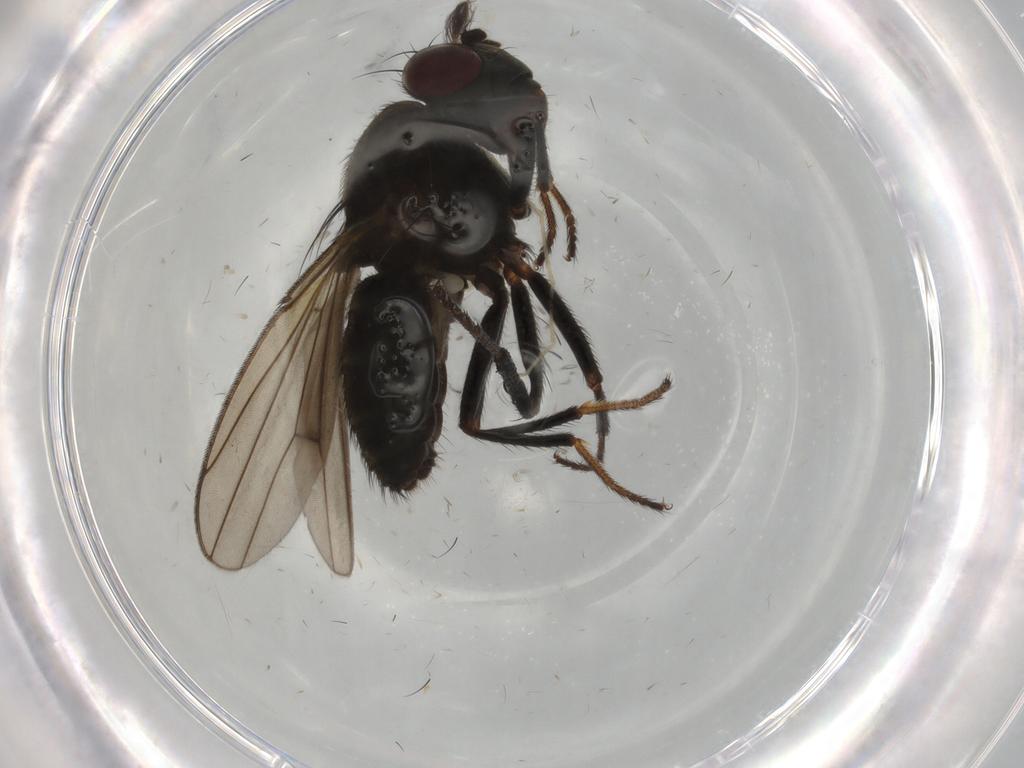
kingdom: Animalia
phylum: Arthropoda
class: Insecta
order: Diptera
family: Ephydridae
